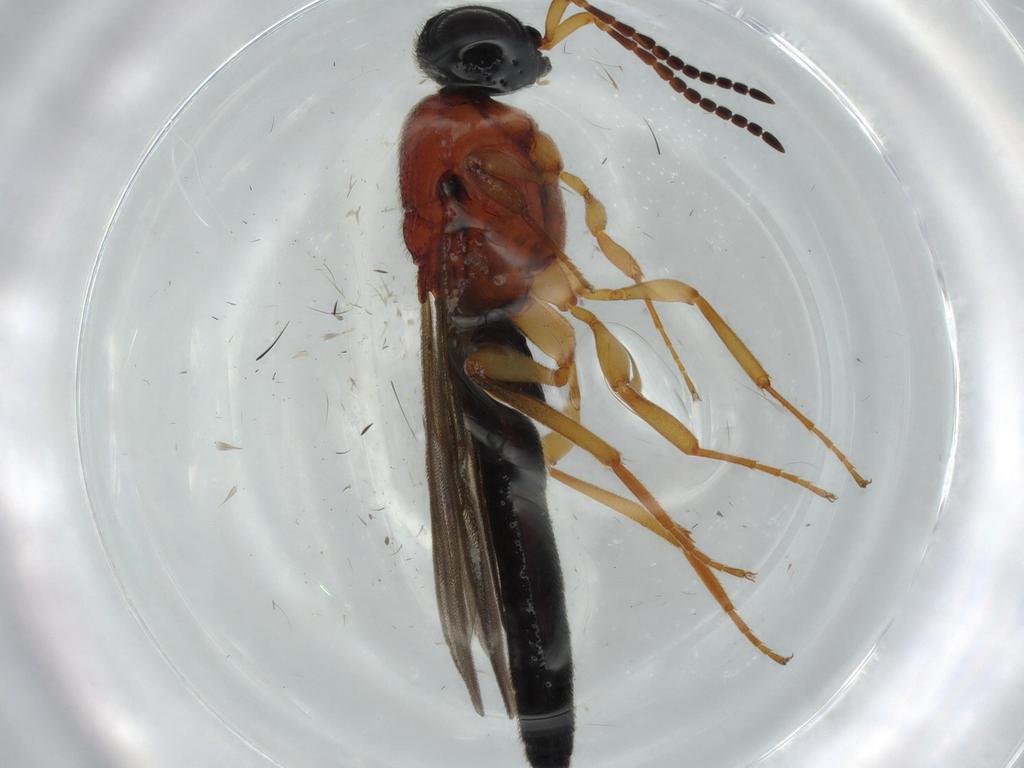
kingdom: Animalia
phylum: Arthropoda
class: Insecta
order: Hymenoptera
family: Scelionidae
